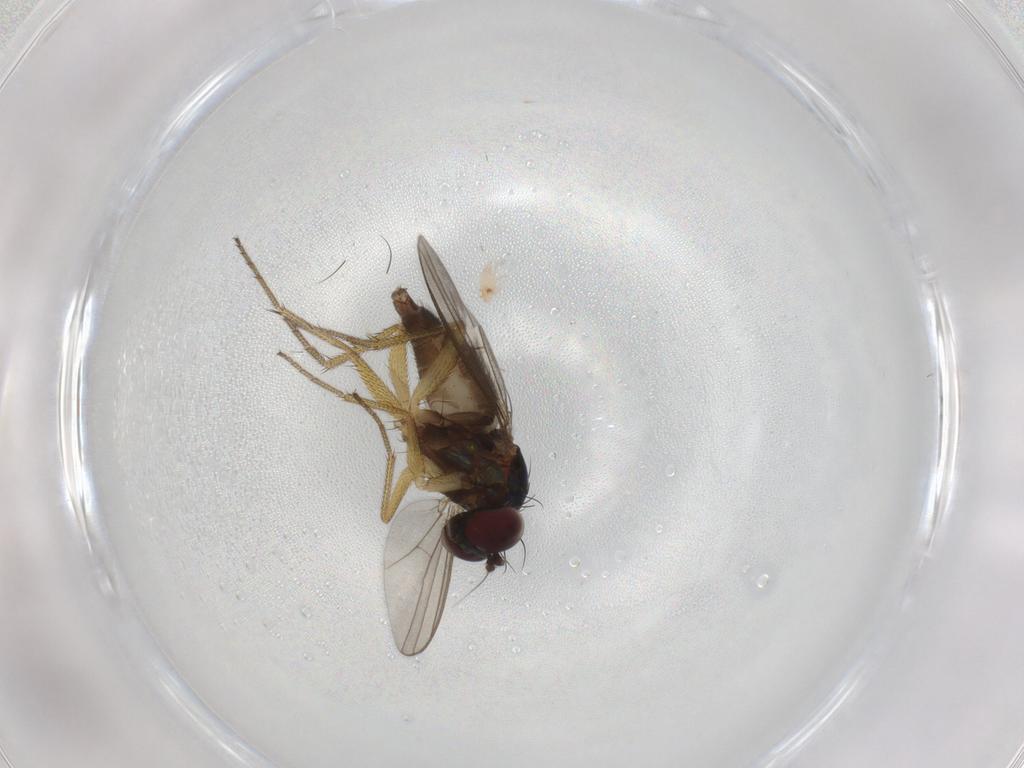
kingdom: Animalia
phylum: Arthropoda
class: Insecta
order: Diptera
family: Dolichopodidae
